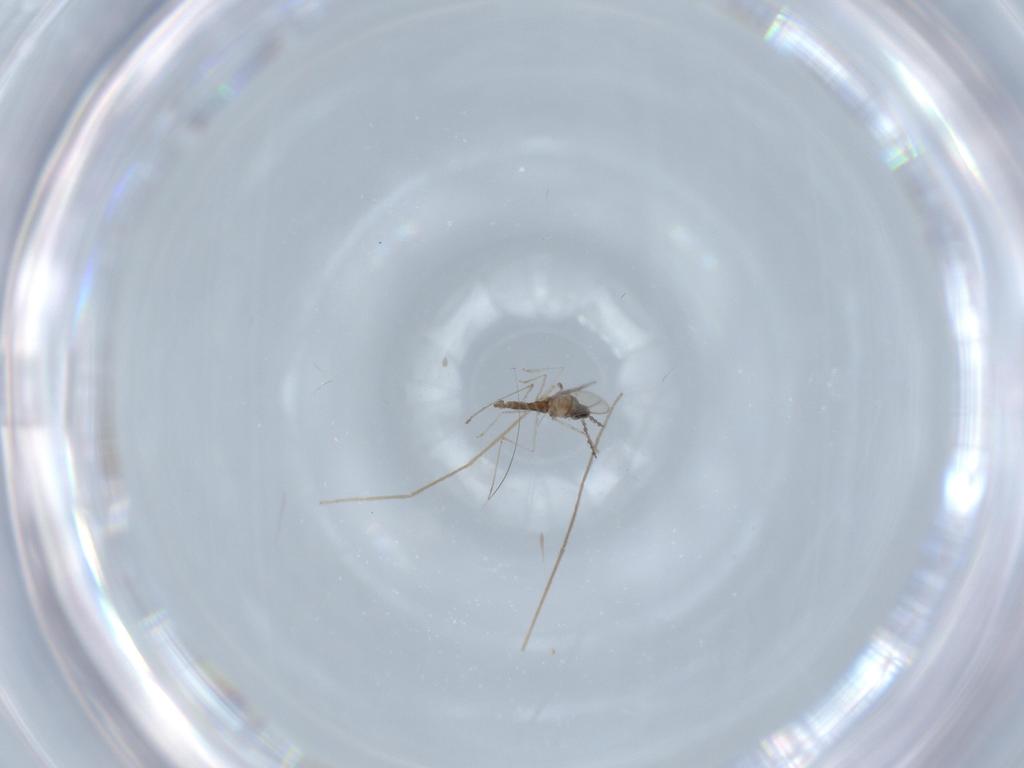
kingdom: Animalia
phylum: Arthropoda
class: Insecta
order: Diptera
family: Cecidomyiidae
